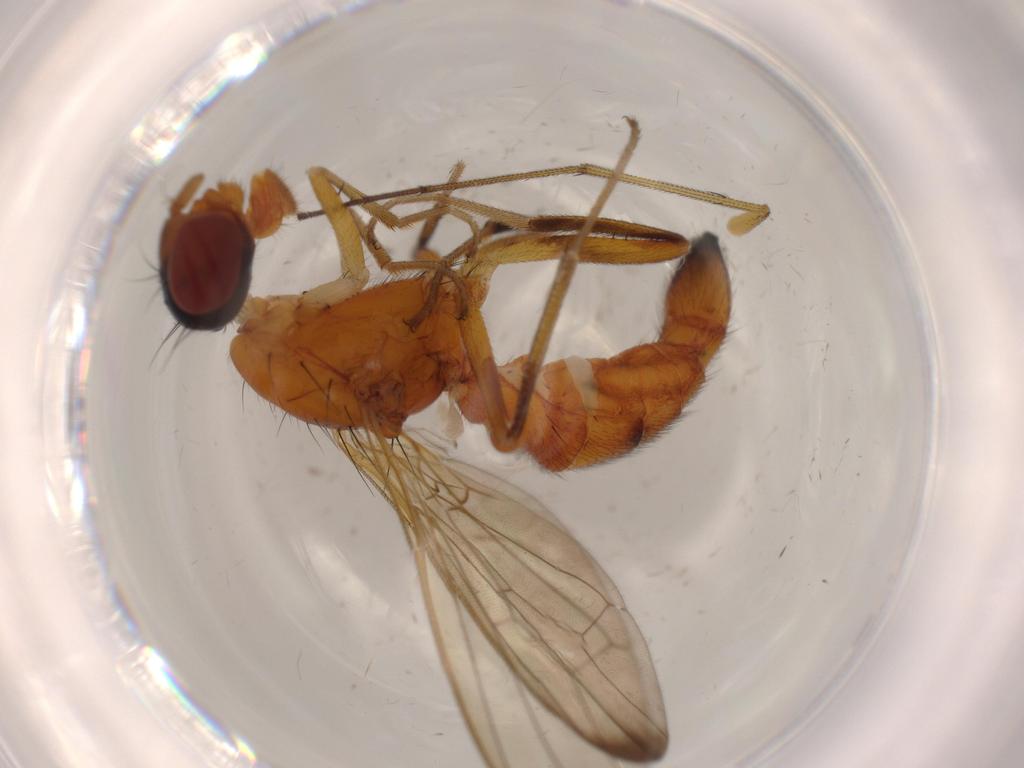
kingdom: Animalia
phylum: Arthropoda
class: Insecta
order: Diptera
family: Richardiidae
